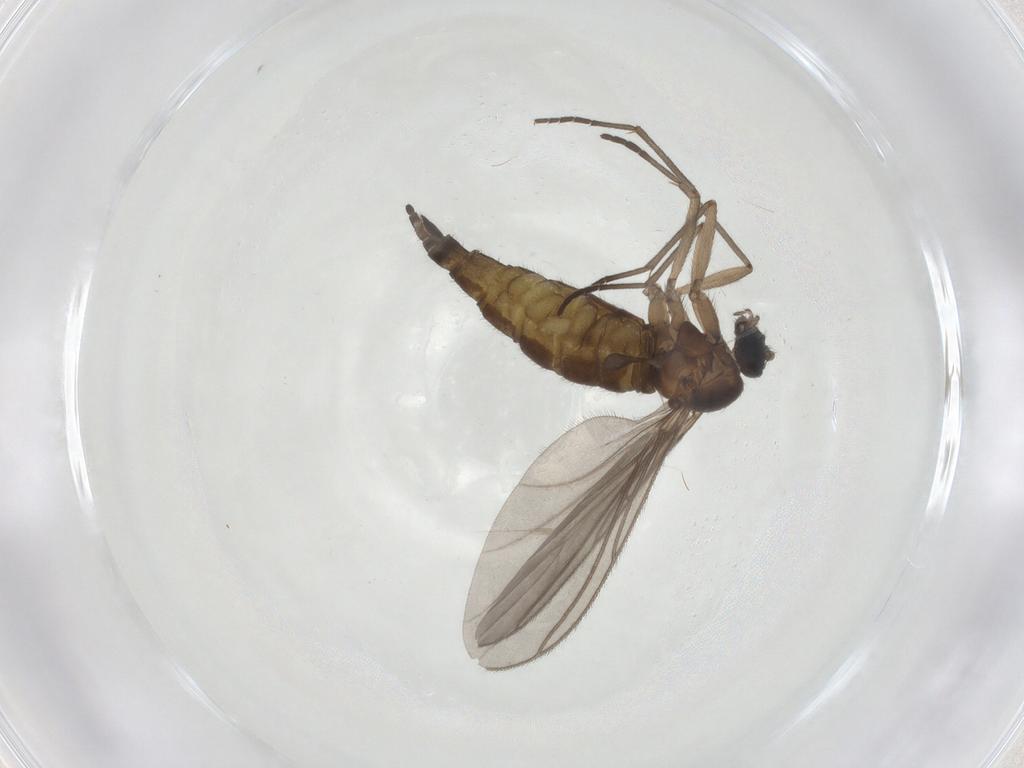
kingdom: Animalia
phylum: Arthropoda
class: Insecta
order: Diptera
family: Sciaridae
